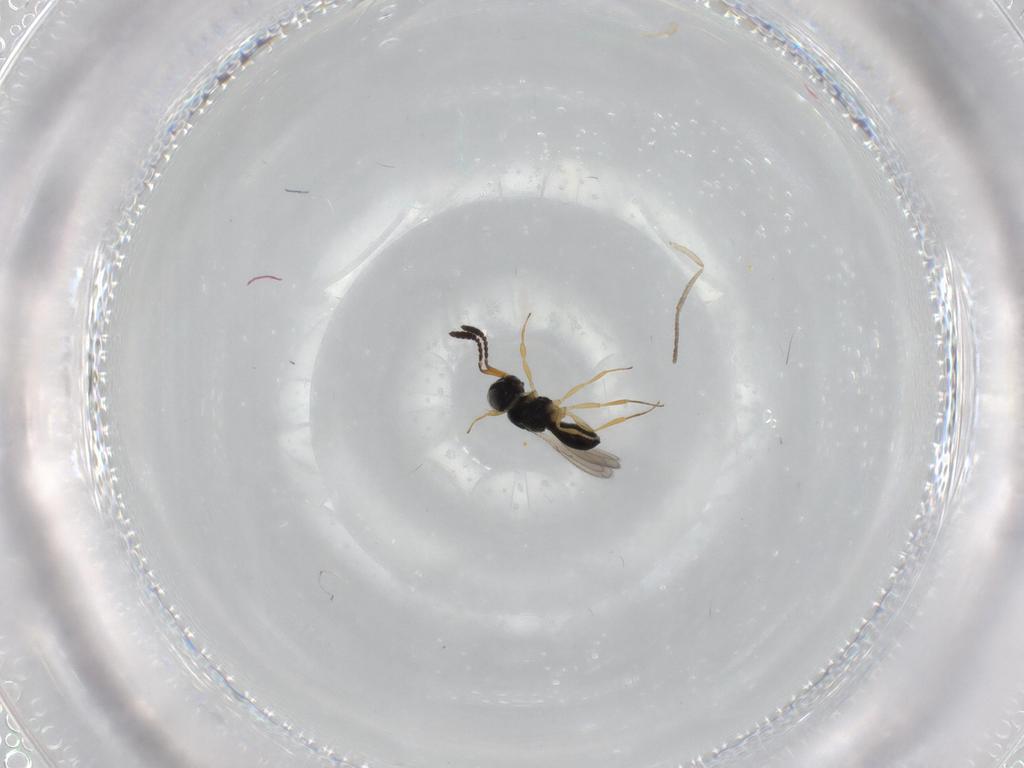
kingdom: Animalia
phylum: Arthropoda
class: Insecta
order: Hymenoptera
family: Scelionidae
